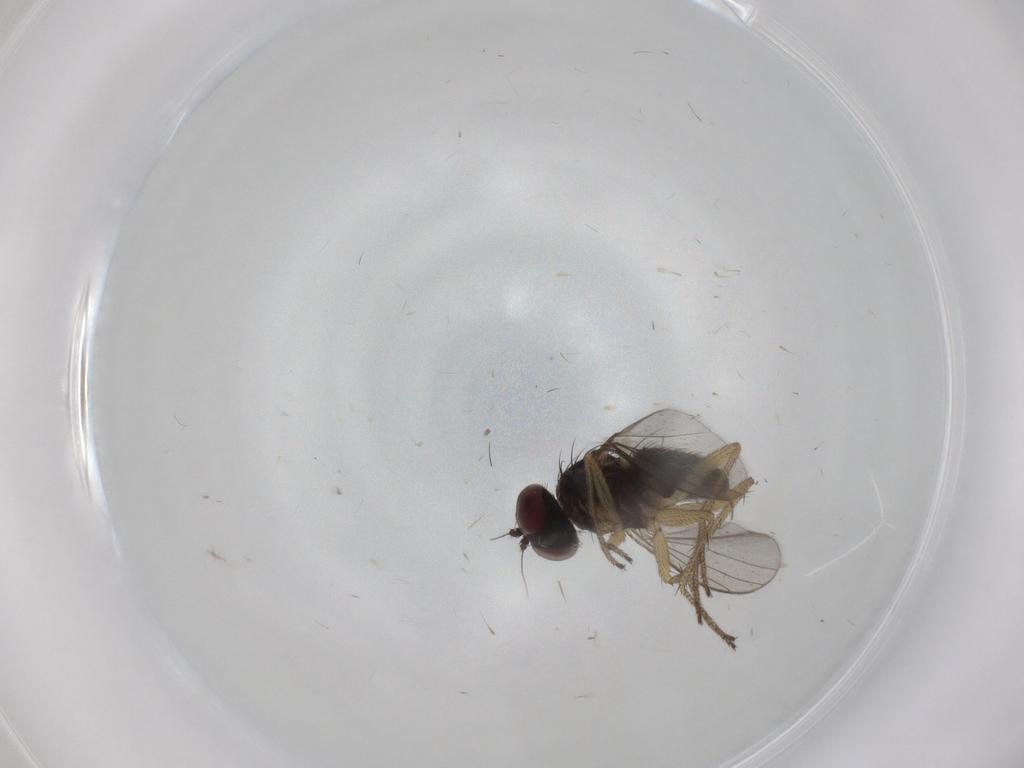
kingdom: Animalia
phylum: Arthropoda
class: Insecta
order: Diptera
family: Ceratopogonidae
